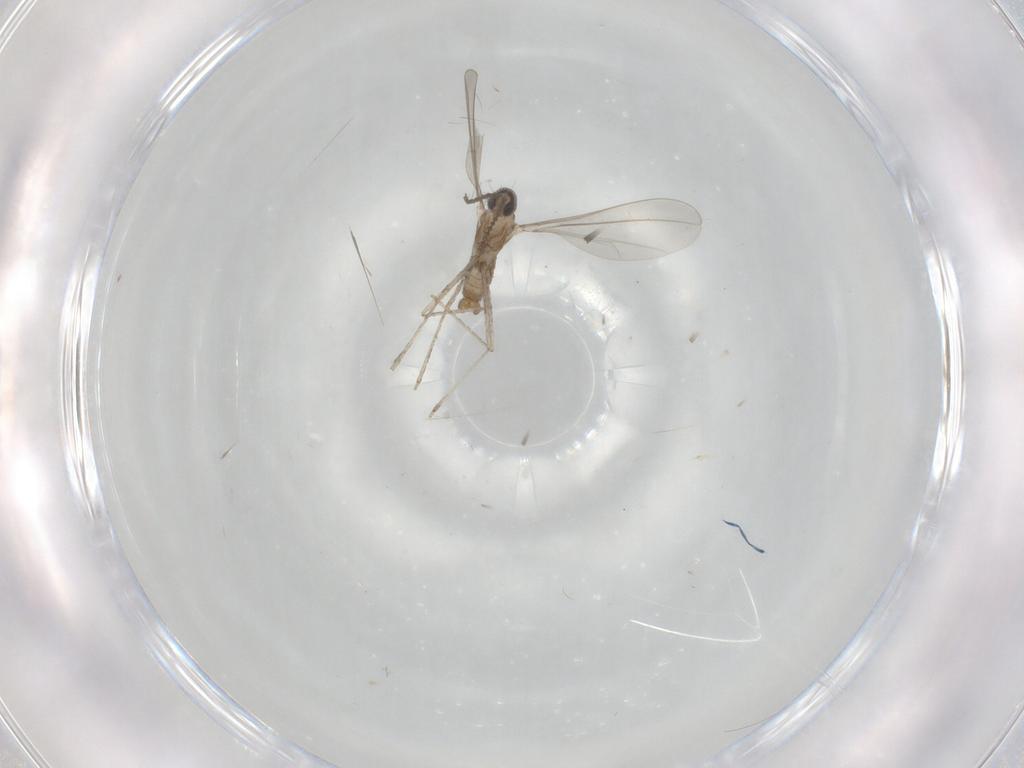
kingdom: Animalia
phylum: Arthropoda
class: Insecta
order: Diptera
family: Cecidomyiidae
